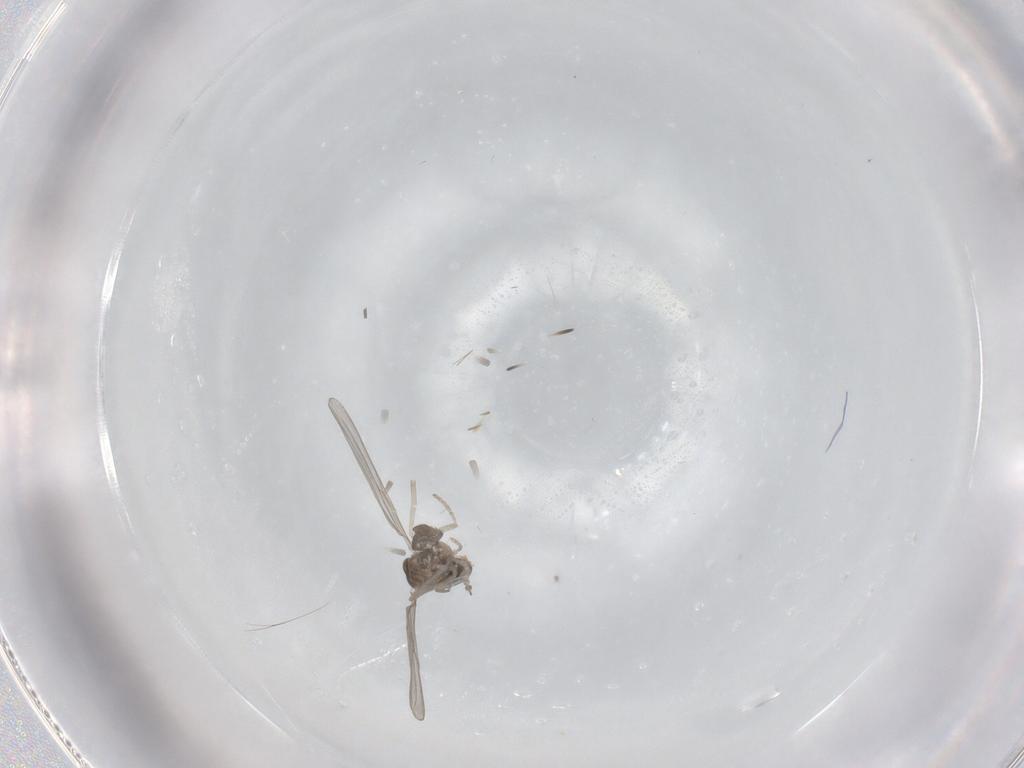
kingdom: Animalia
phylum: Arthropoda
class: Insecta
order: Diptera
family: Cecidomyiidae
